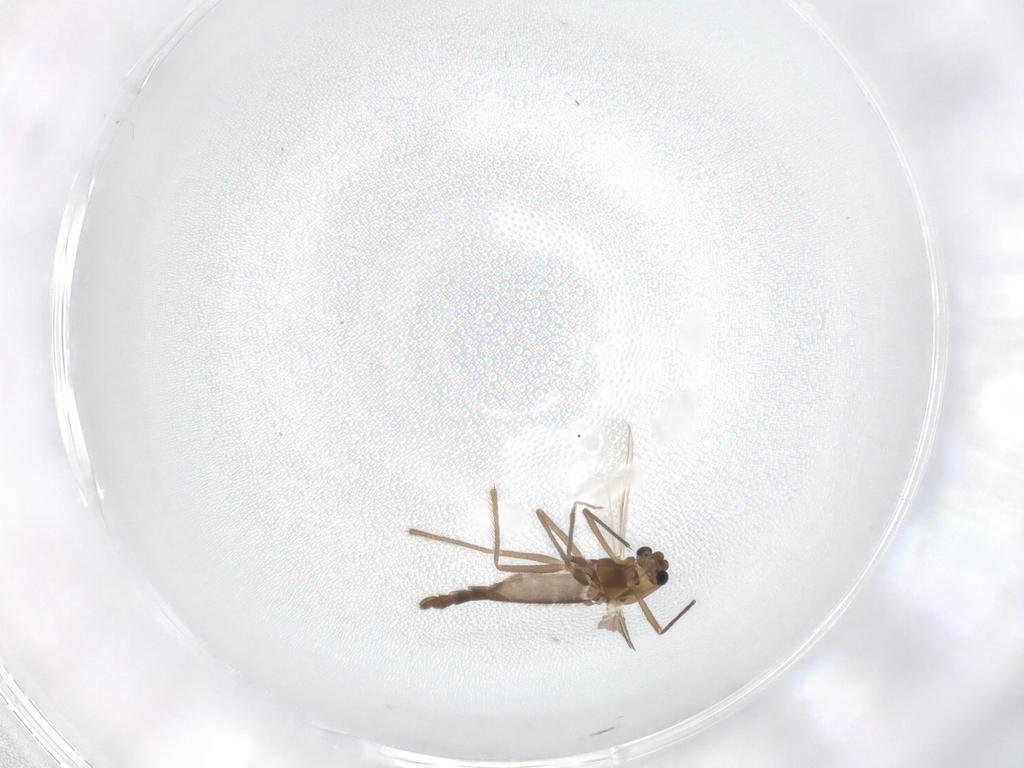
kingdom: Animalia
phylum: Arthropoda
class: Insecta
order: Diptera
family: Chironomidae
